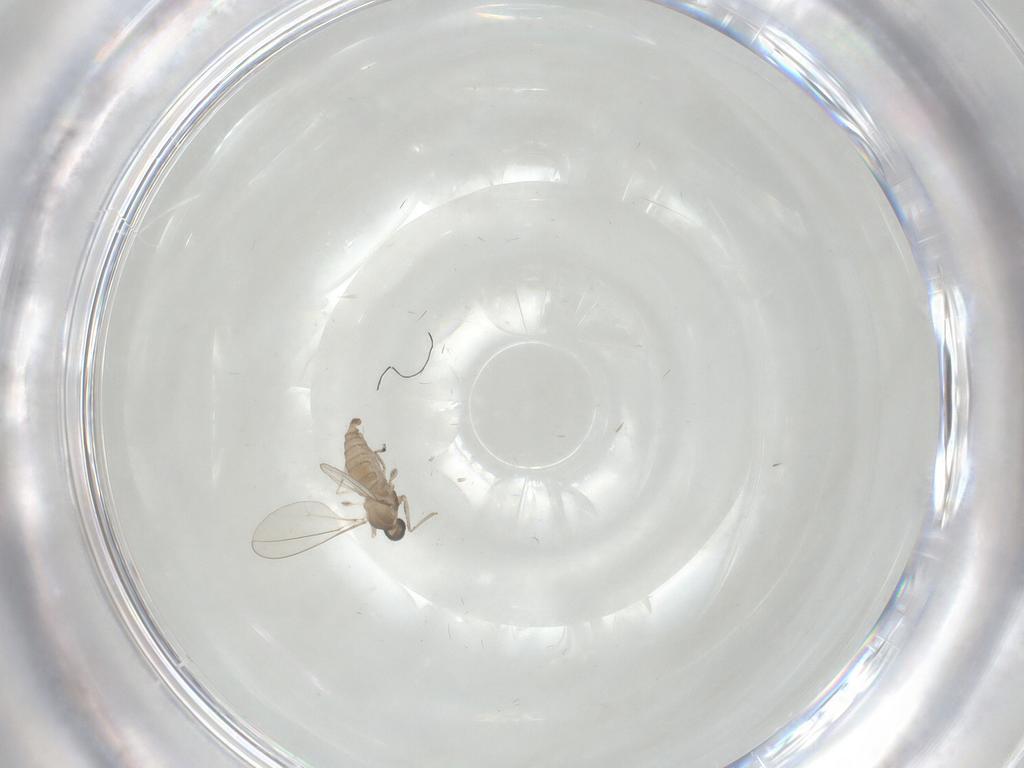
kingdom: Animalia
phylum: Arthropoda
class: Insecta
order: Diptera
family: Cecidomyiidae
